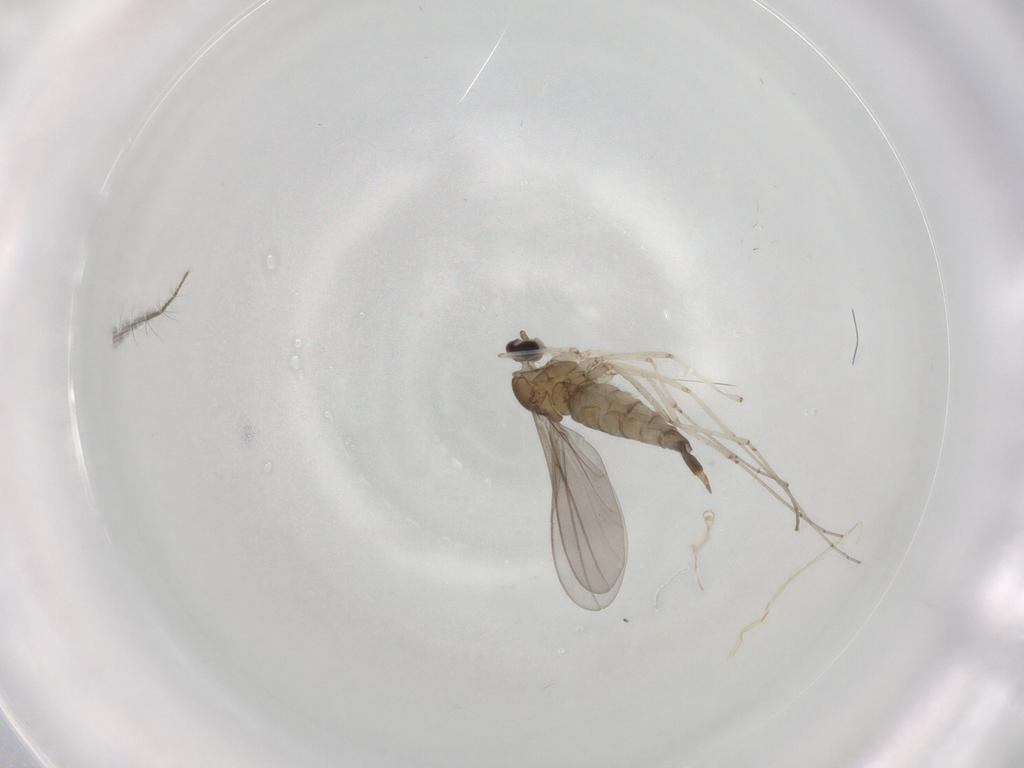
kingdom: Animalia
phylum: Arthropoda
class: Insecta
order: Diptera
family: Cecidomyiidae
